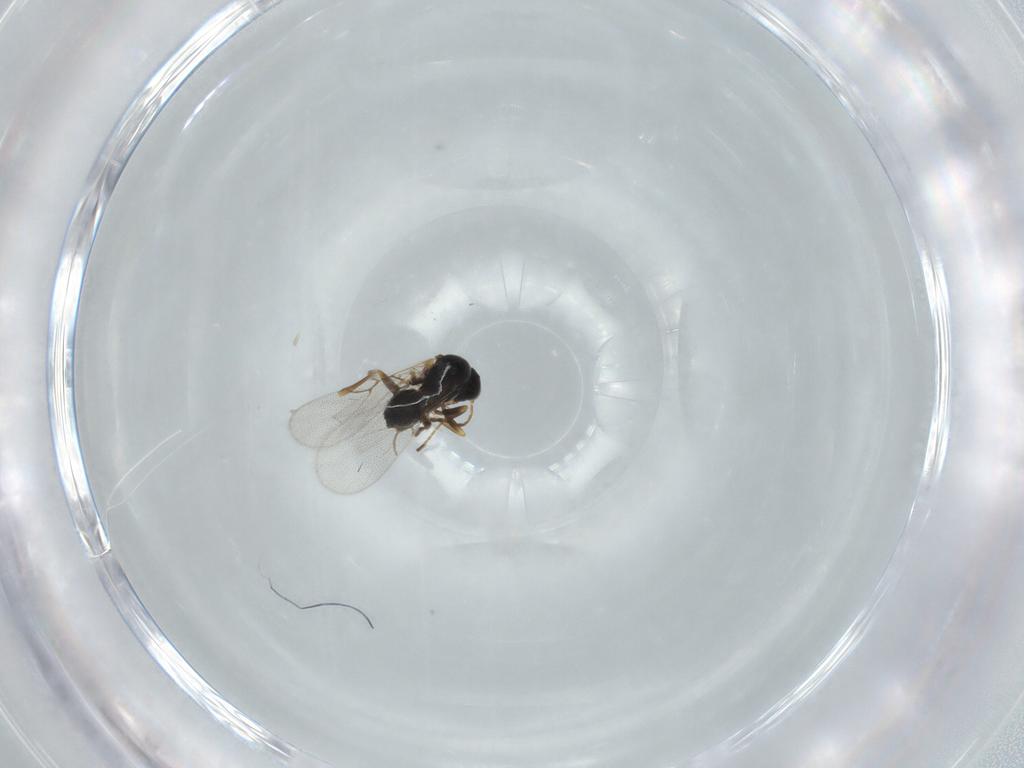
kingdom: Animalia
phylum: Arthropoda
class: Insecta
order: Hymenoptera
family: Figitidae
